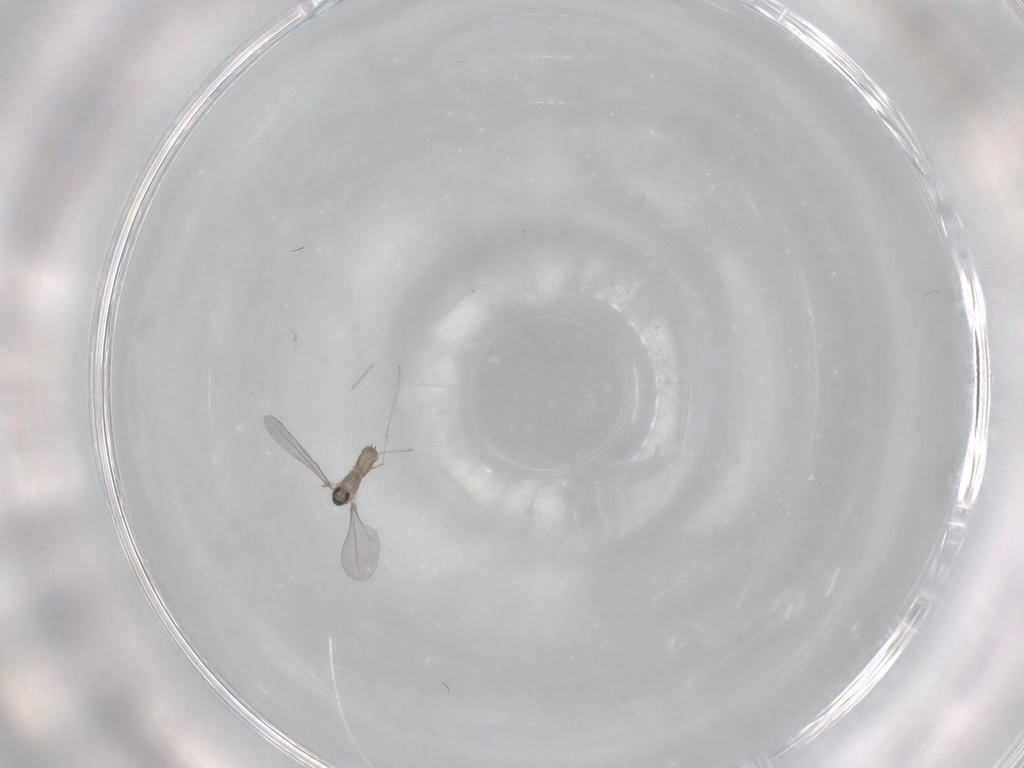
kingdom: Animalia
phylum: Arthropoda
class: Insecta
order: Diptera
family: Cecidomyiidae
